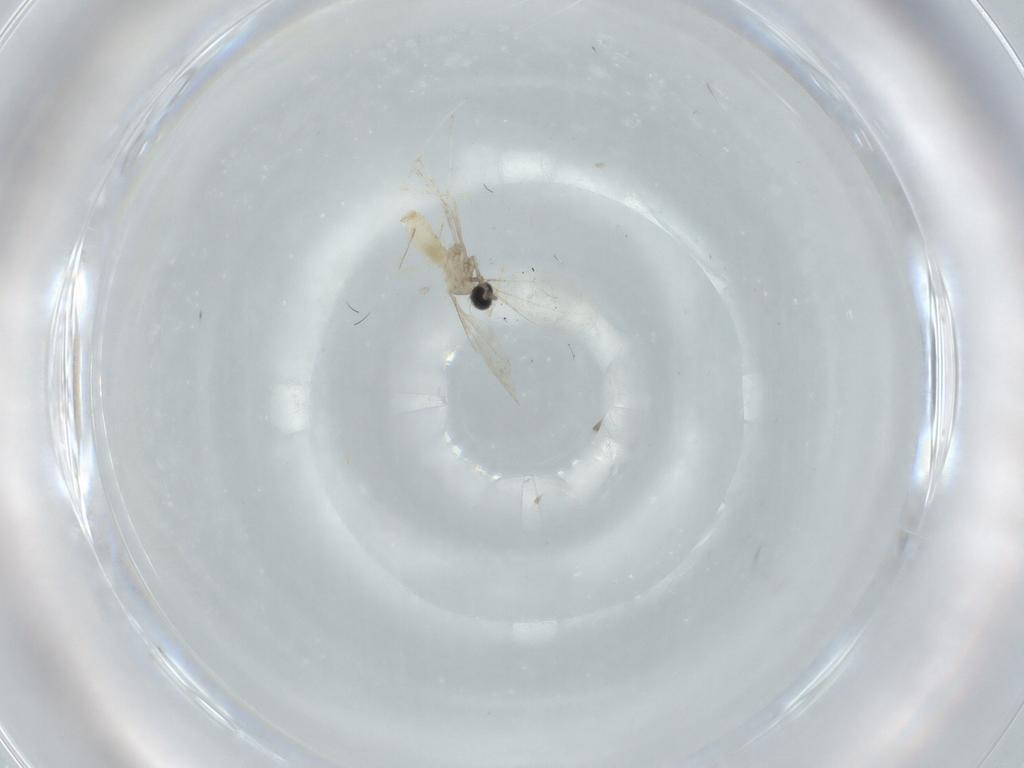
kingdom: Animalia
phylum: Arthropoda
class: Insecta
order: Diptera
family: Cecidomyiidae
